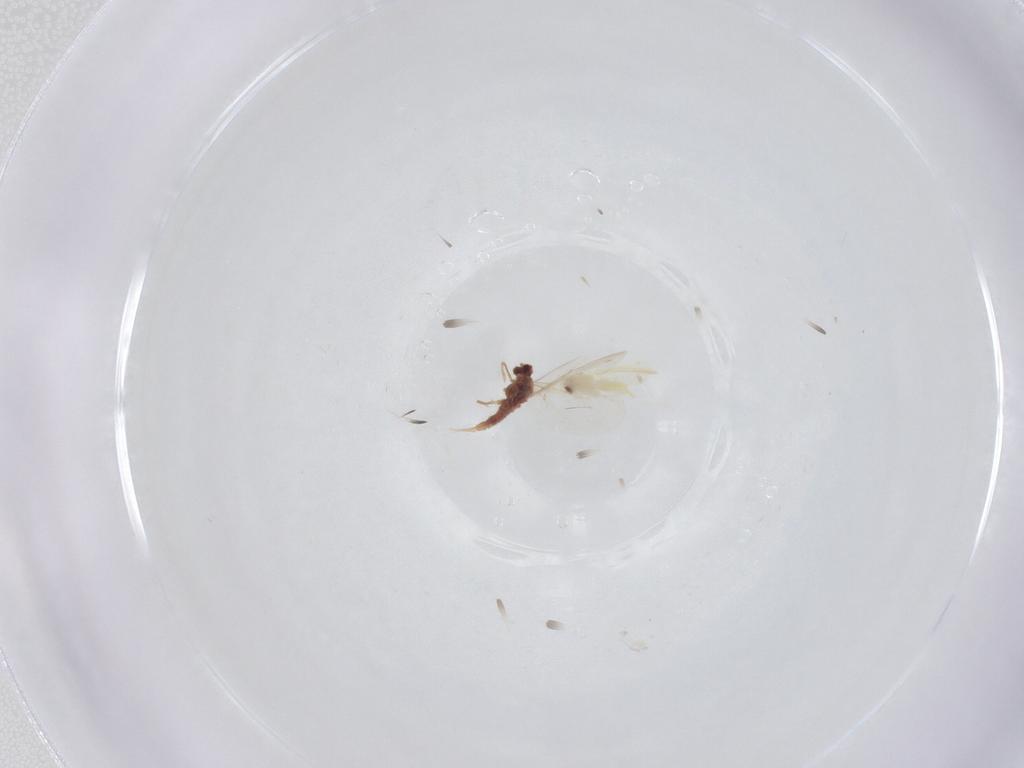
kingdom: Animalia
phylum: Arthropoda
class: Insecta
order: Hemiptera
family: Aleyrodidae
